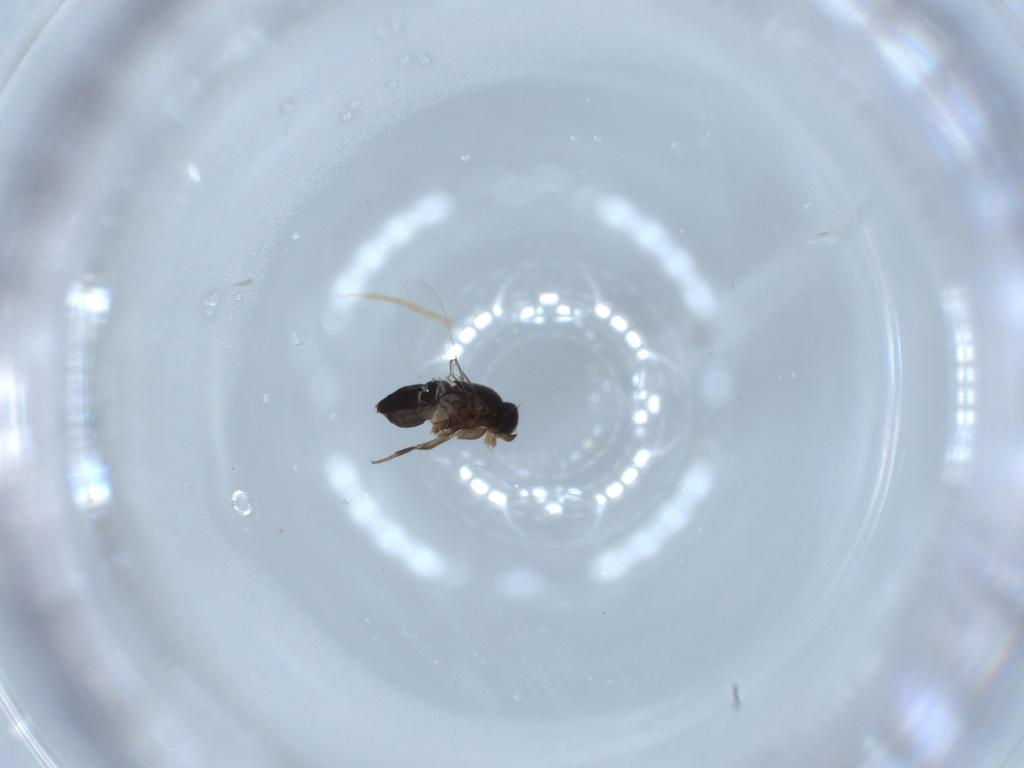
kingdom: Animalia
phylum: Arthropoda
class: Insecta
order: Diptera
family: Phoridae
